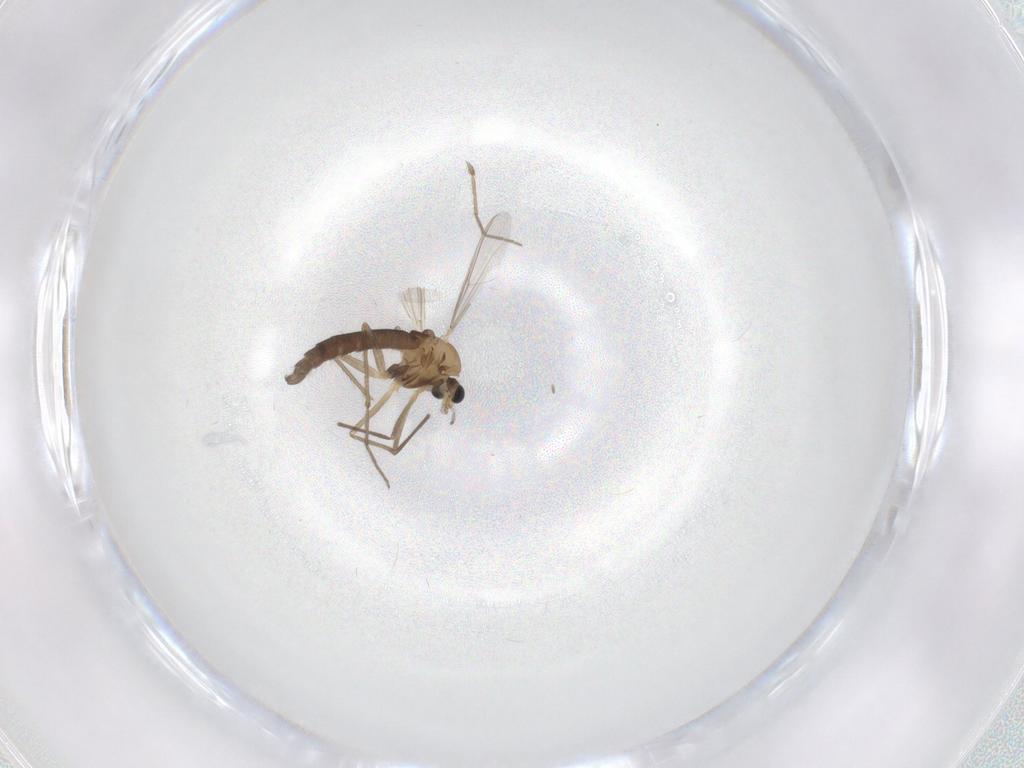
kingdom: Animalia
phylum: Arthropoda
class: Insecta
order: Diptera
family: Chironomidae
